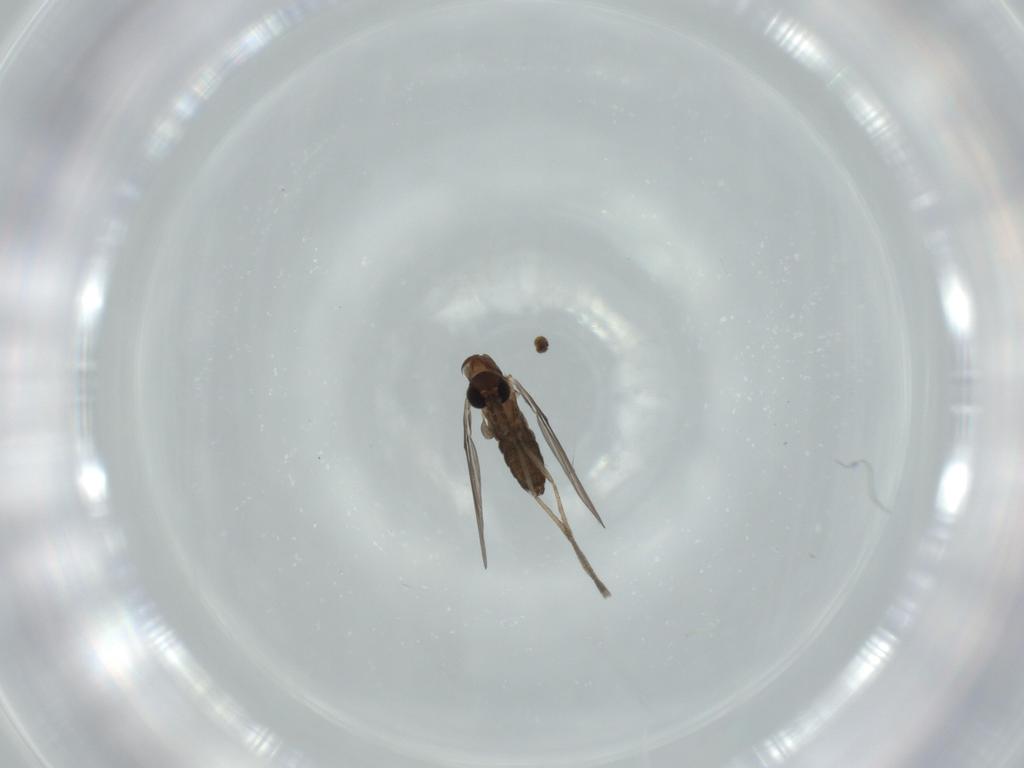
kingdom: Animalia
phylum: Arthropoda
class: Insecta
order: Diptera
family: Psychodidae
